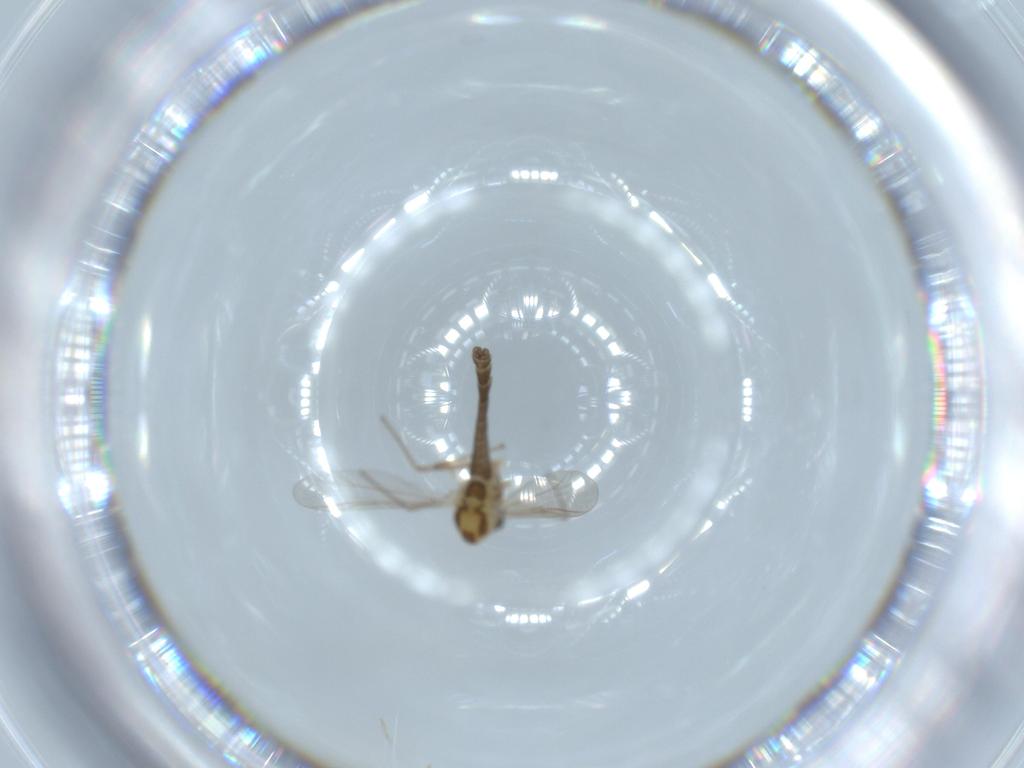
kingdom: Animalia
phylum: Arthropoda
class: Insecta
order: Diptera
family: Chironomidae
